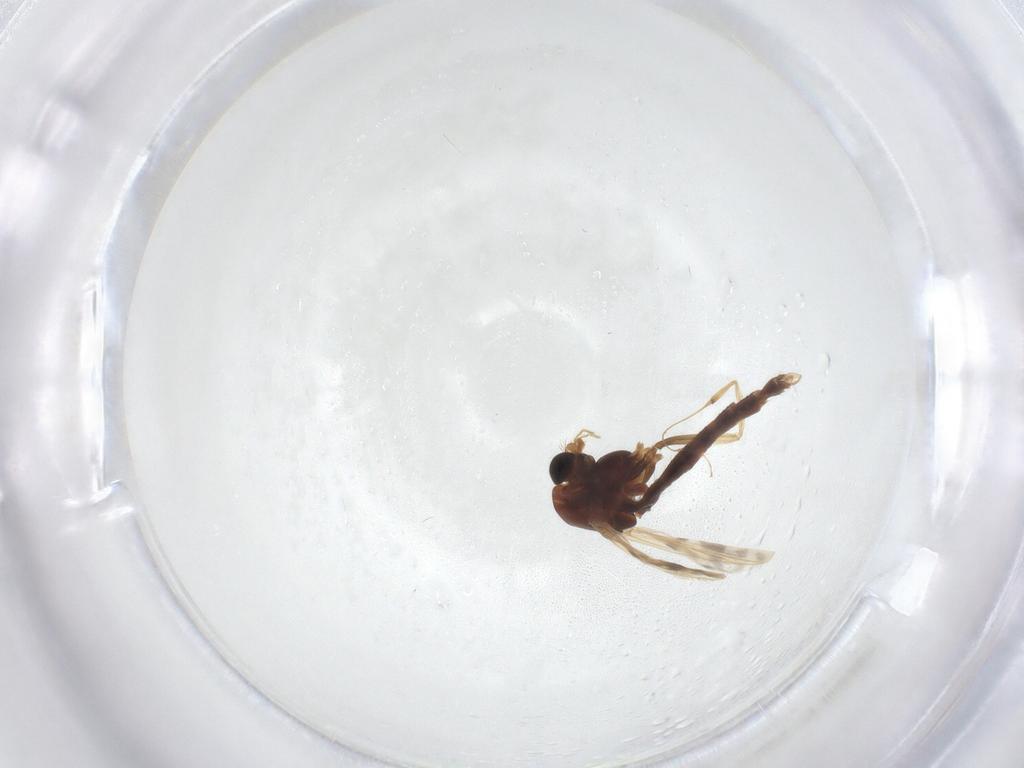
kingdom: Animalia
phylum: Arthropoda
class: Insecta
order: Diptera
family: Chironomidae
